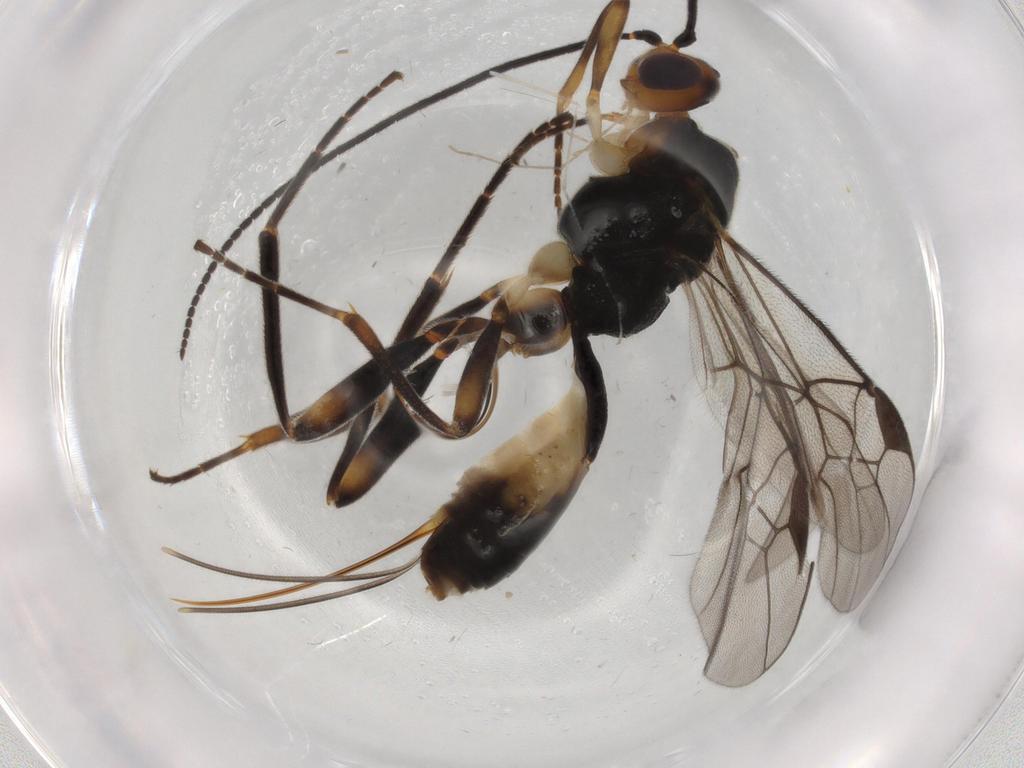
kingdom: Animalia
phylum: Arthropoda
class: Insecta
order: Hymenoptera
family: Braconidae
